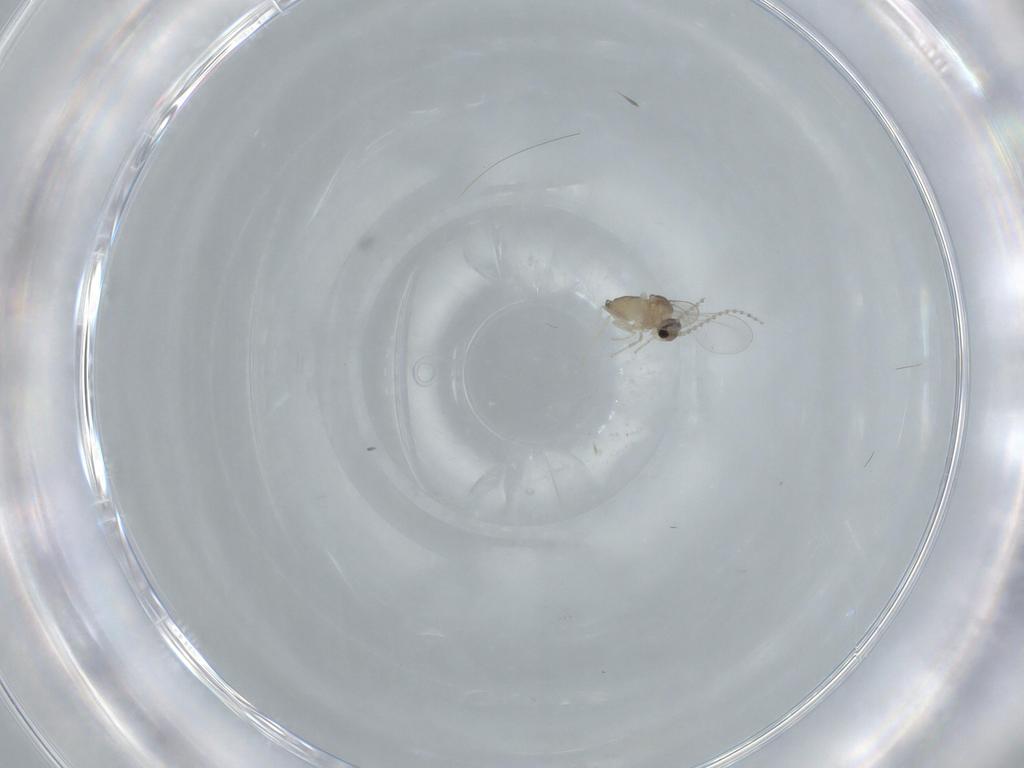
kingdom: Animalia
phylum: Arthropoda
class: Insecta
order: Diptera
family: Cecidomyiidae
